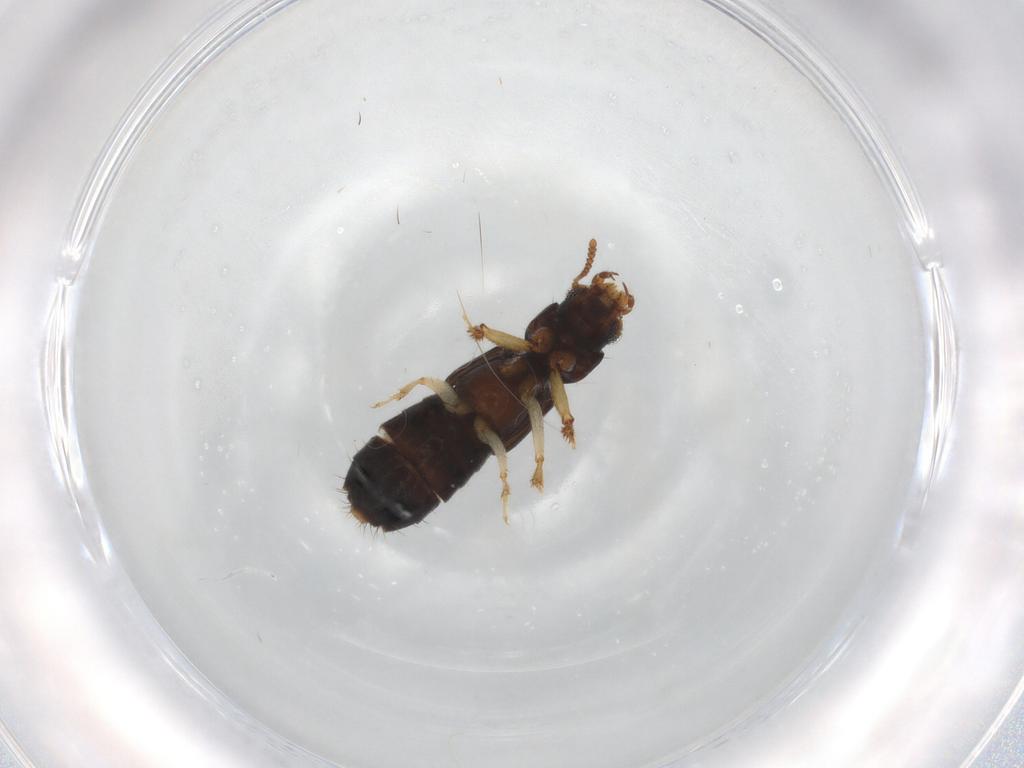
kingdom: Animalia
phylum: Arthropoda
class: Insecta
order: Coleoptera
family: Staphylinidae
